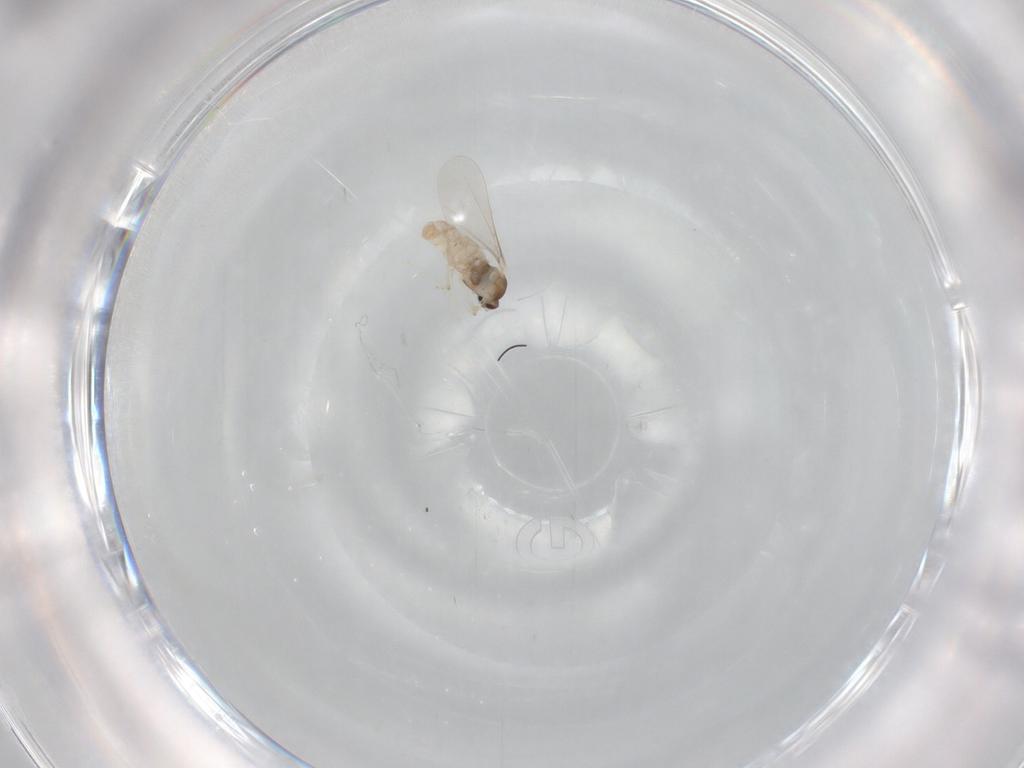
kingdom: Animalia
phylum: Arthropoda
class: Insecta
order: Diptera
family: Cecidomyiidae
